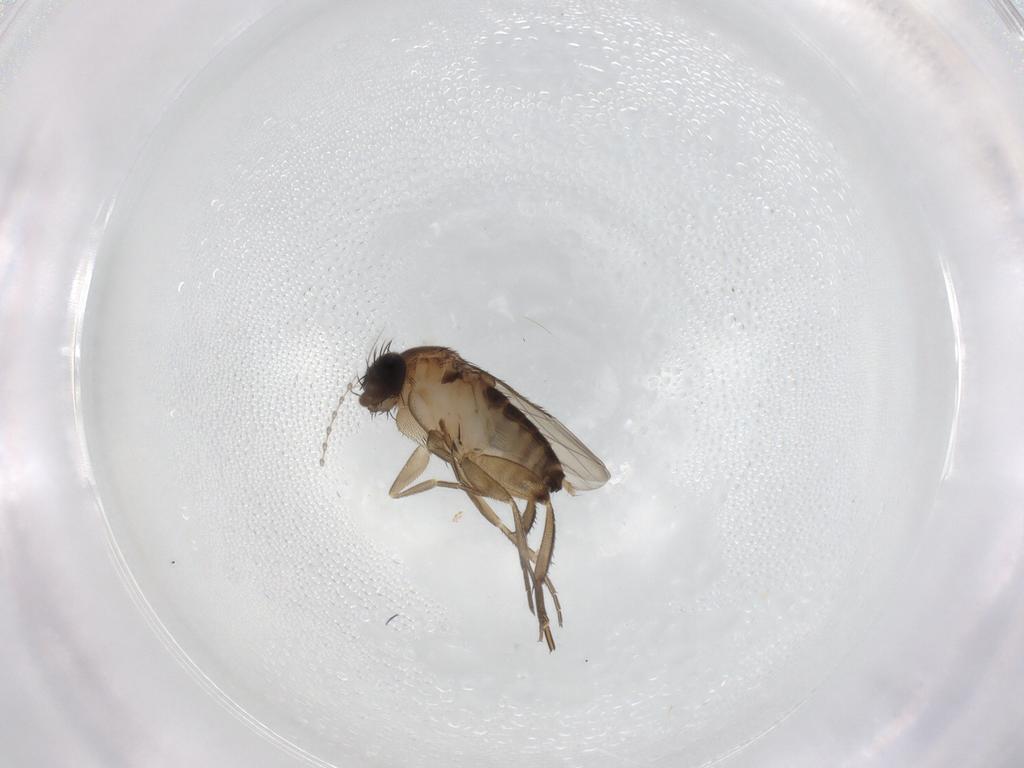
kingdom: Animalia
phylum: Arthropoda
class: Insecta
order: Diptera
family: Phoridae
